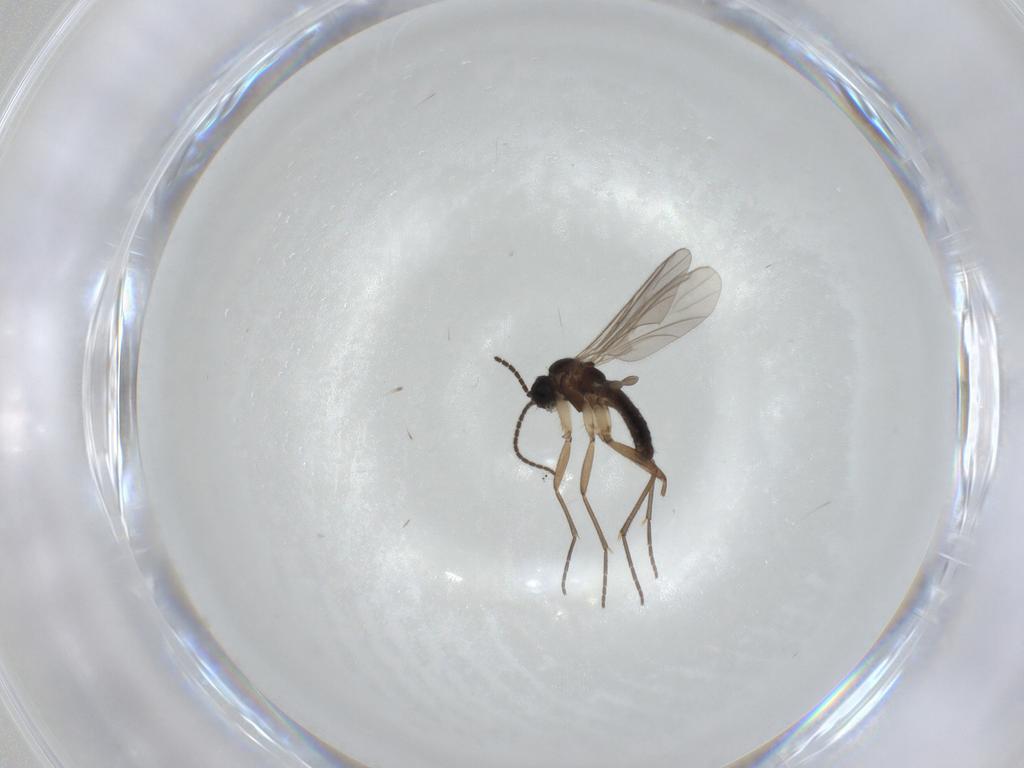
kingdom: Animalia
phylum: Arthropoda
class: Insecta
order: Diptera
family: Sciaridae
